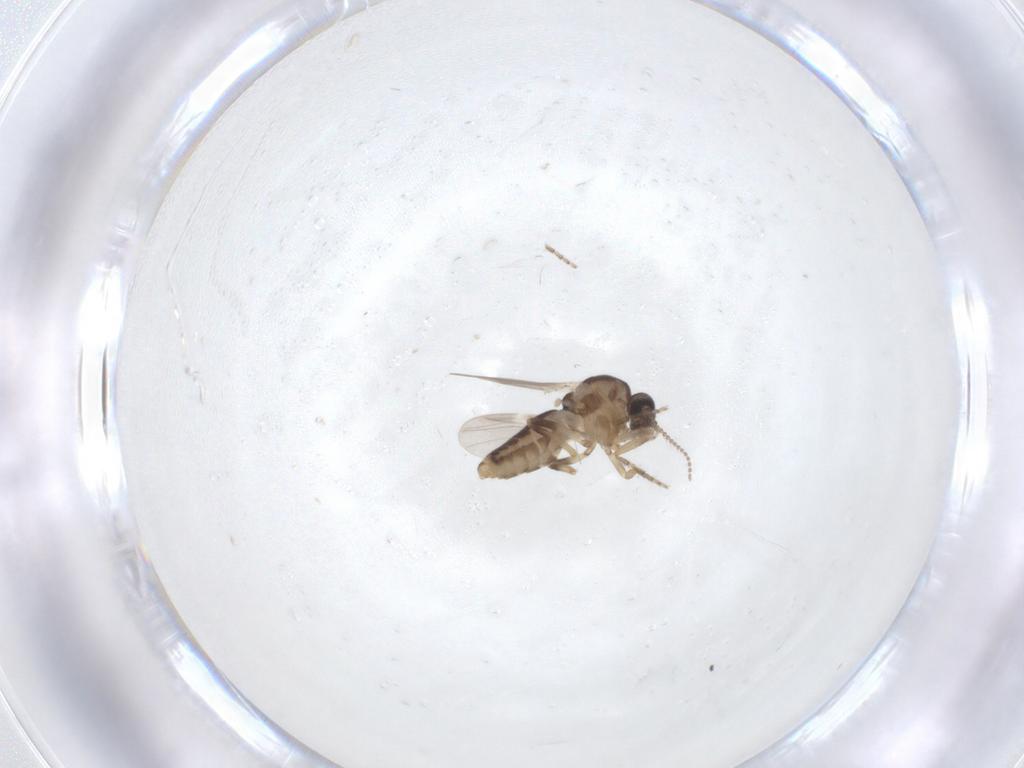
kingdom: Animalia
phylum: Arthropoda
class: Insecta
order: Diptera
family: Ceratopogonidae
